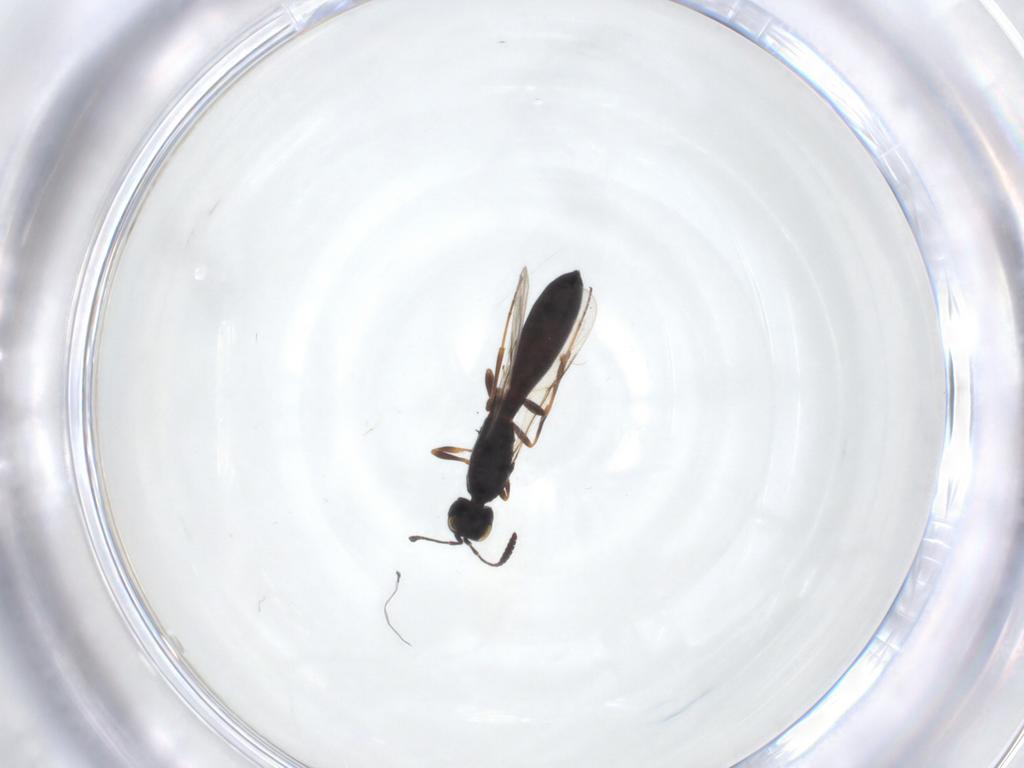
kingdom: Animalia
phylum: Arthropoda
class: Insecta
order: Hymenoptera
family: Scelionidae
